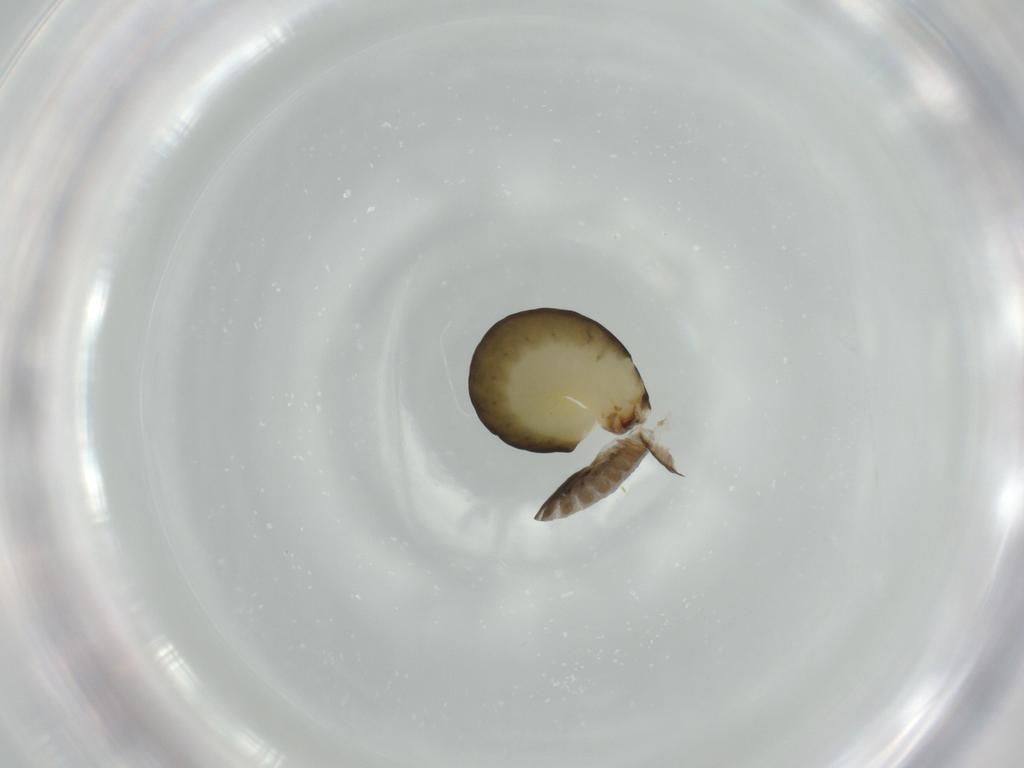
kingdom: Animalia
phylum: Arthropoda
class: Insecta
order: Hymenoptera
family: Dryinidae
